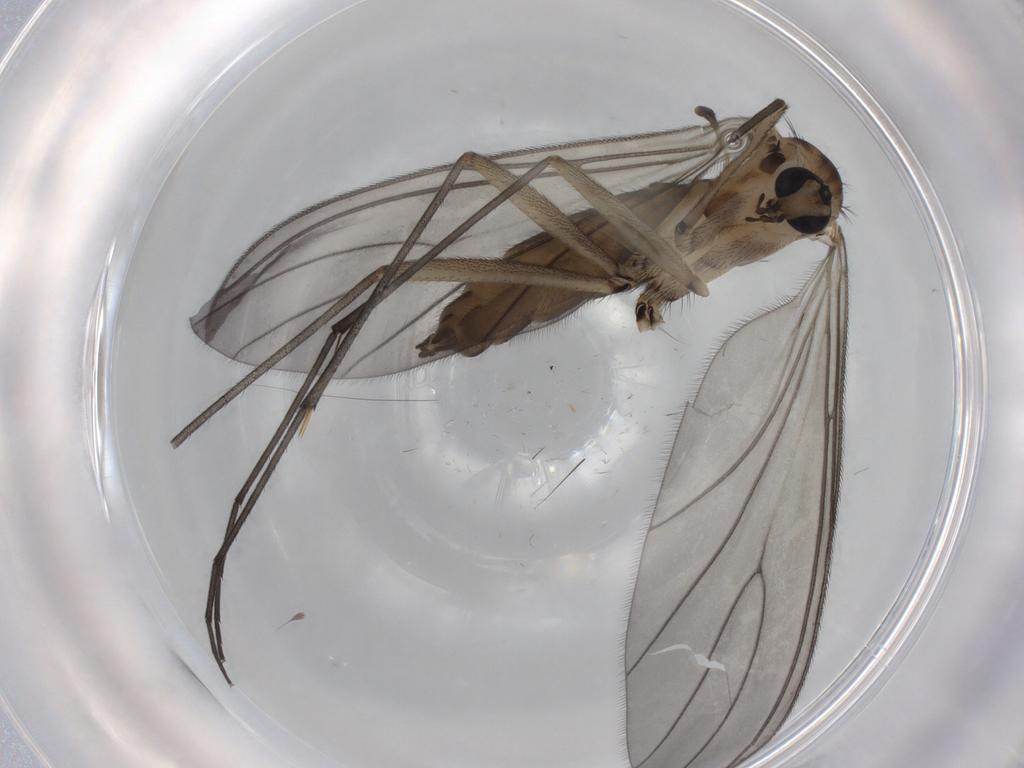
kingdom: Animalia
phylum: Arthropoda
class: Insecta
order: Diptera
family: Sciaridae
